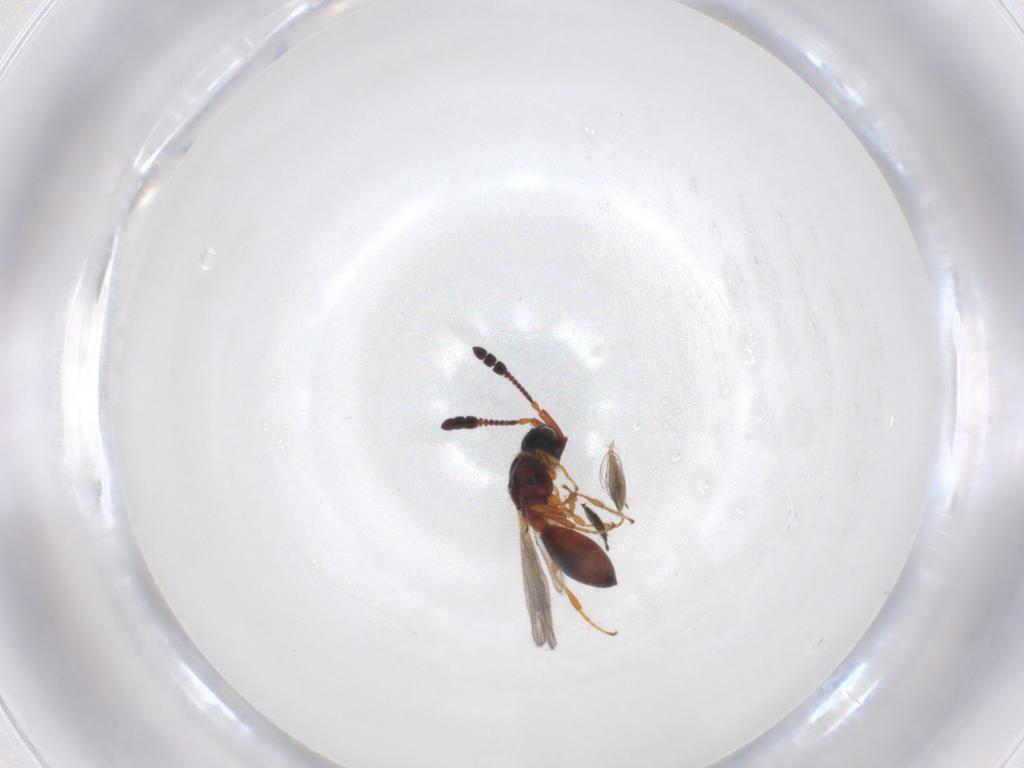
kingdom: Animalia
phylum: Arthropoda
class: Insecta
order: Hymenoptera
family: Diapriidae
